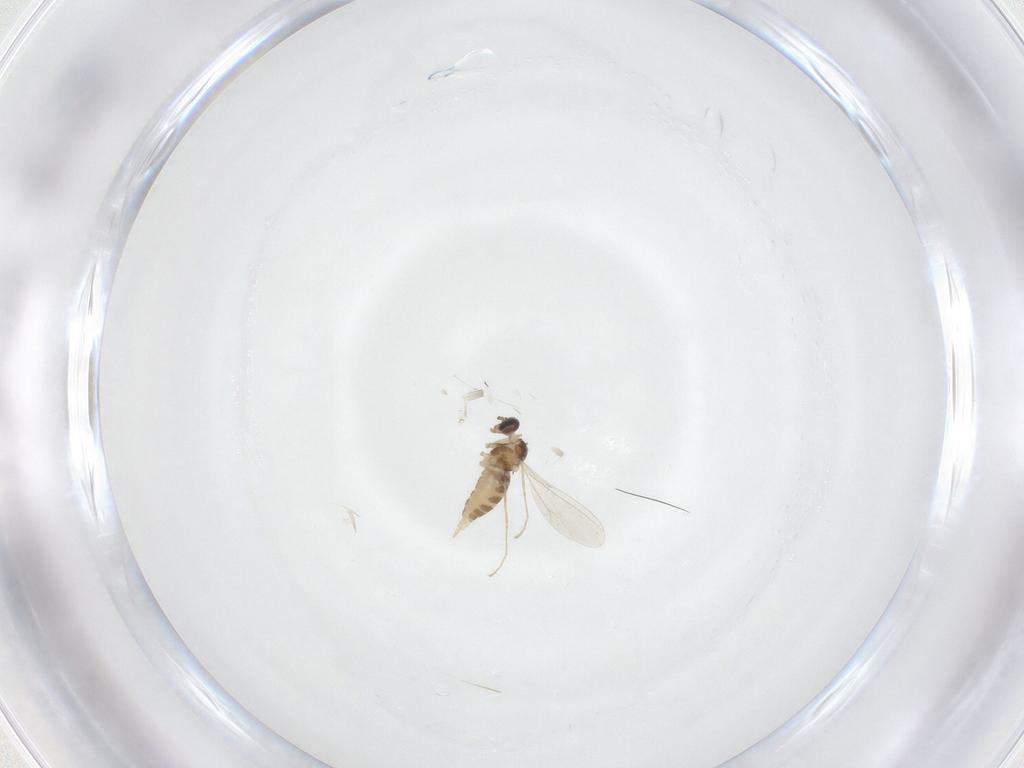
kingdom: Animalia
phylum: Arthropoda
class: Insecta
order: Diptera
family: Cecidomyiidae
